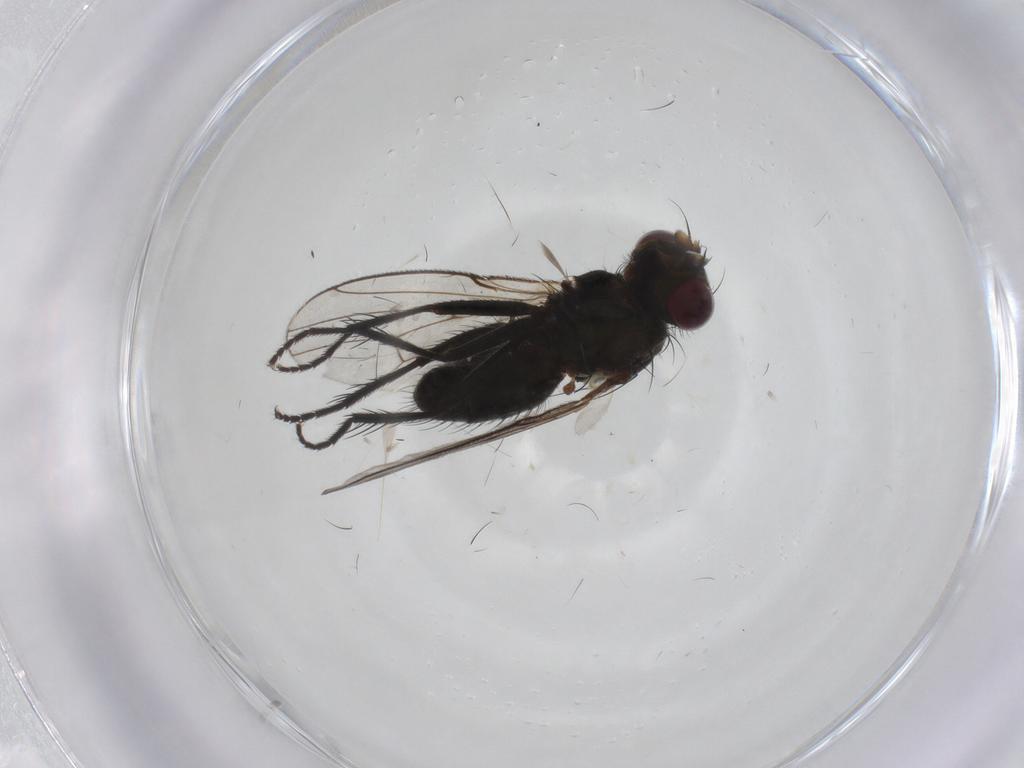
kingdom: Animalia
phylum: Arthropoda
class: Insecta
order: Diptera
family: Muscidae
